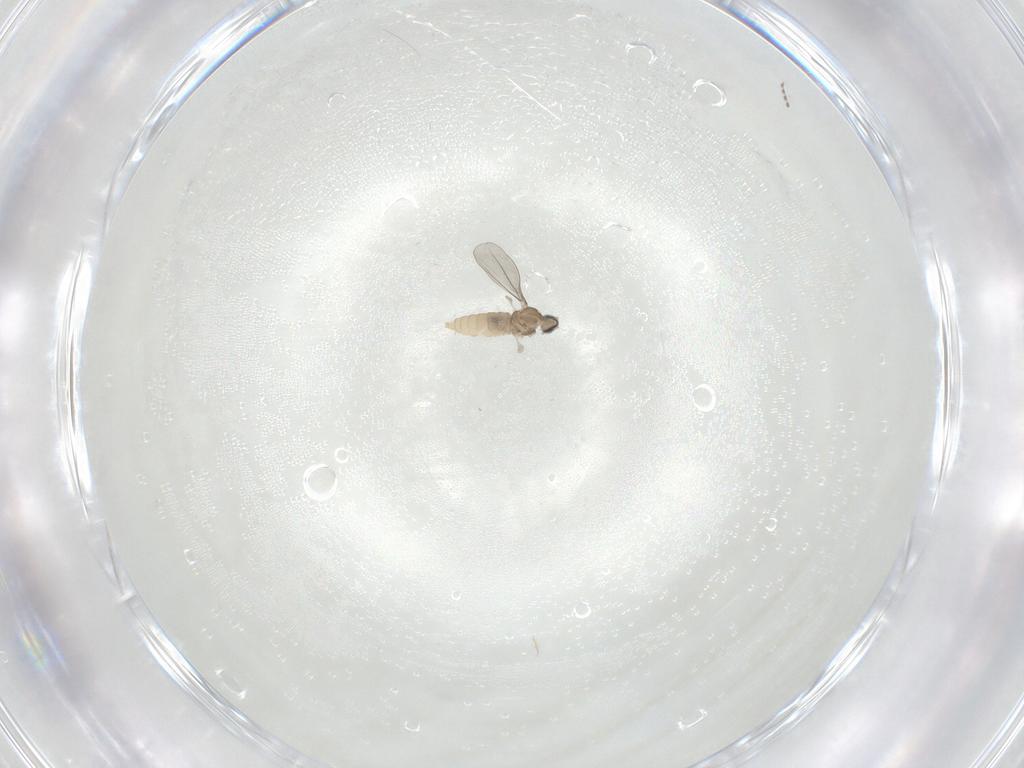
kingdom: Animalia
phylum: Arthropoda
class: Insecta
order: Diptera
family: Cecidomyiidae
